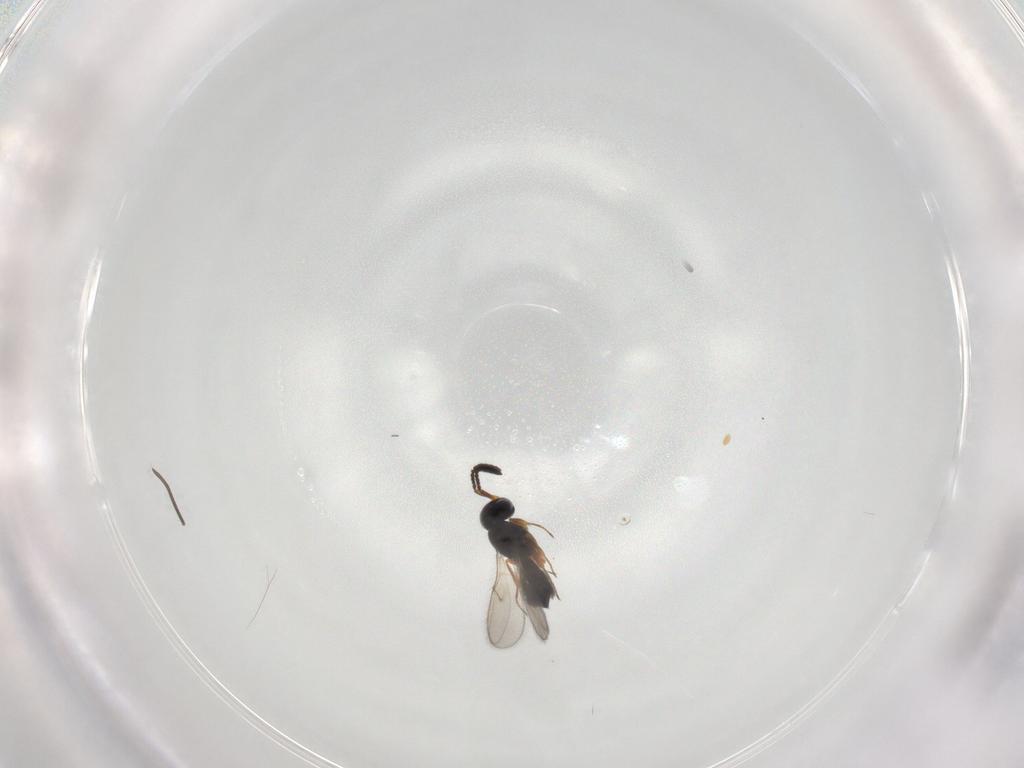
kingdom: Animalia
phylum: Arthropoda
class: Insecta
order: Hymenoptera
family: Scelionidae
